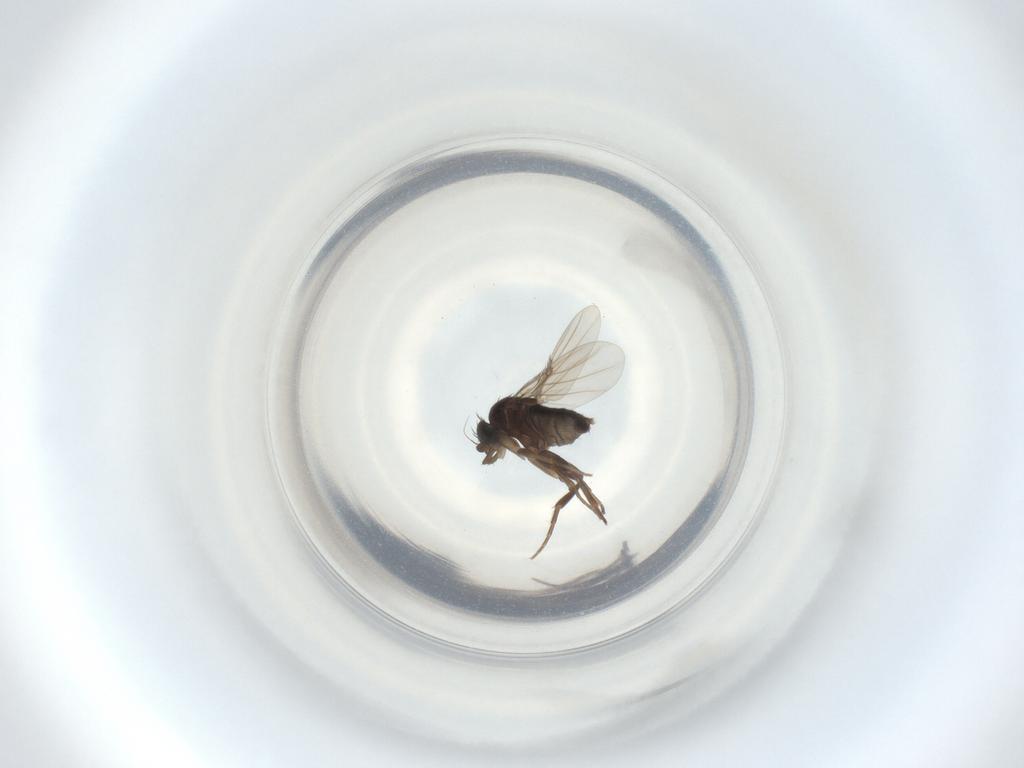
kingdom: Animalia
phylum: Arthropoda
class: Insecta
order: Diptera
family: Phoridae
